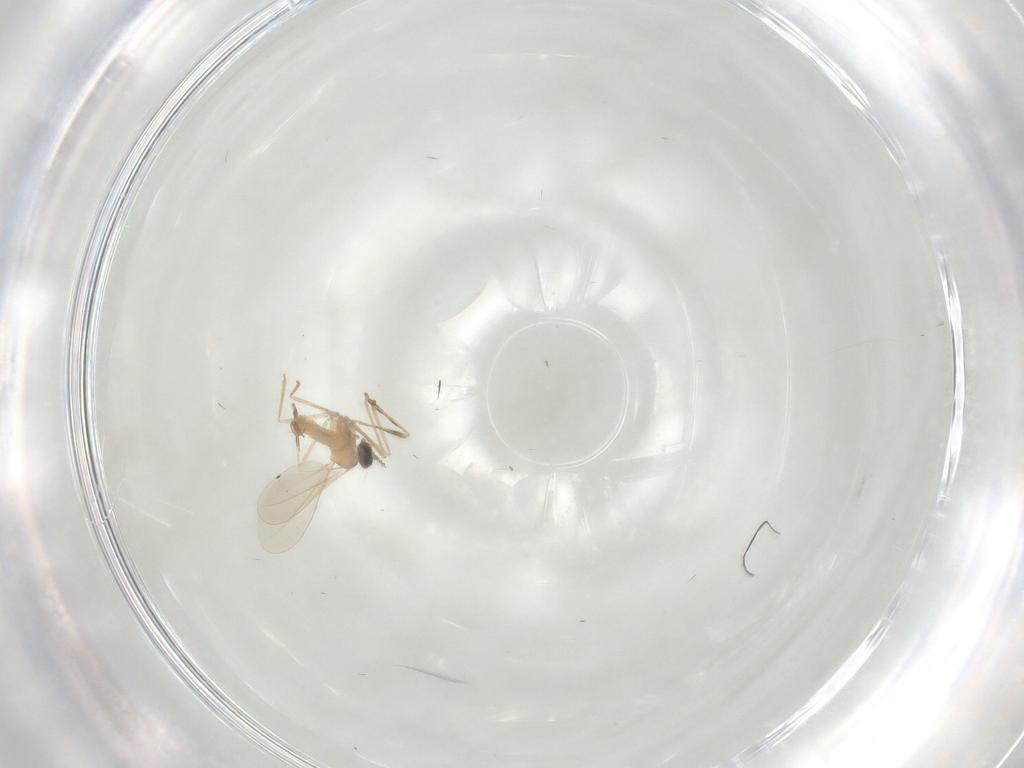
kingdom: Animalia
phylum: Arthropoda
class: Insecta
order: Diptera
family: Cecidomyiidae
